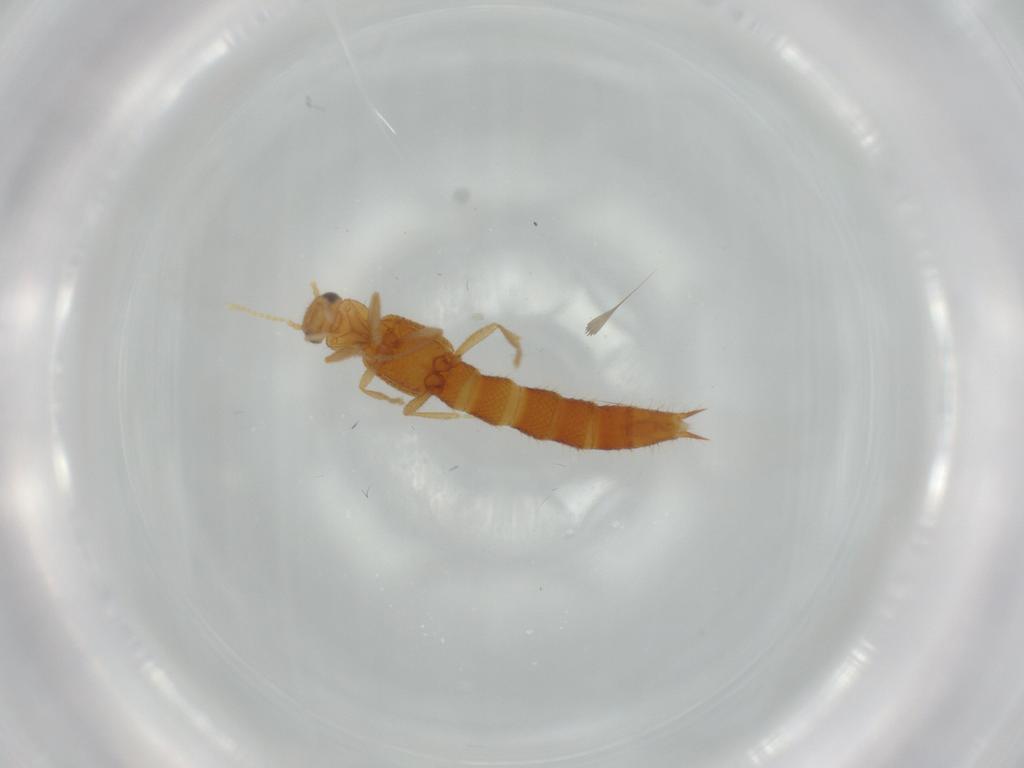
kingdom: Animalia
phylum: Arthropoda
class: Insecta
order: Coleoptera
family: Staphylinidae
